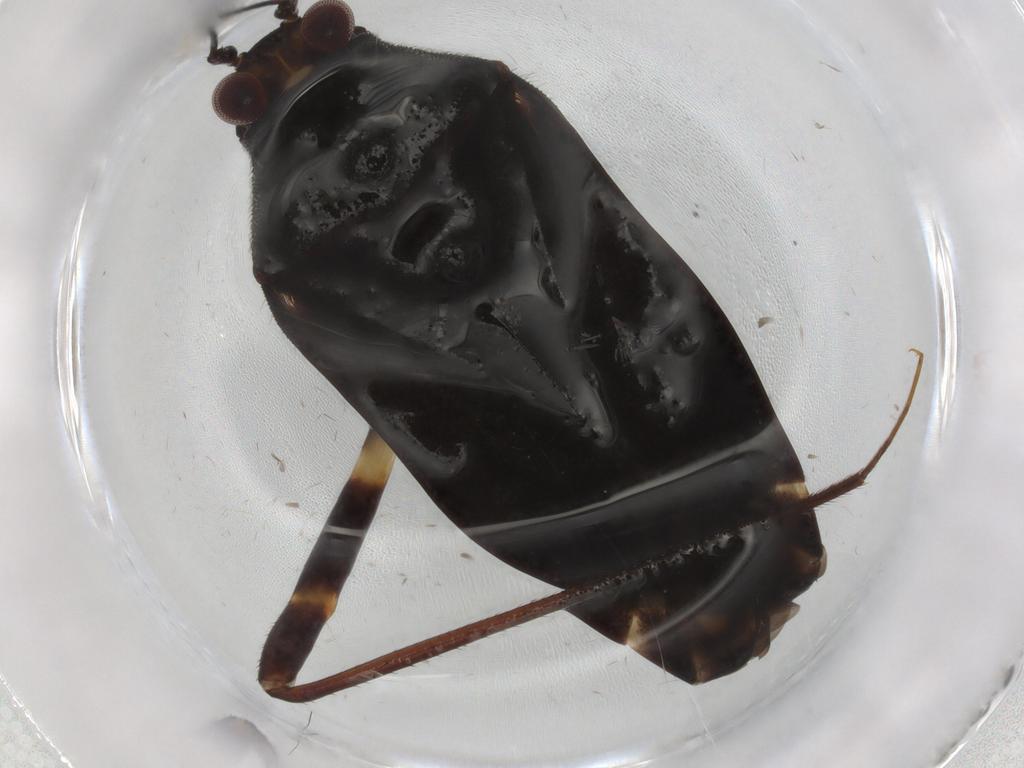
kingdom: Animalia
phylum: Arthropoda
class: Insecta
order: Hemiptera
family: Miridae
